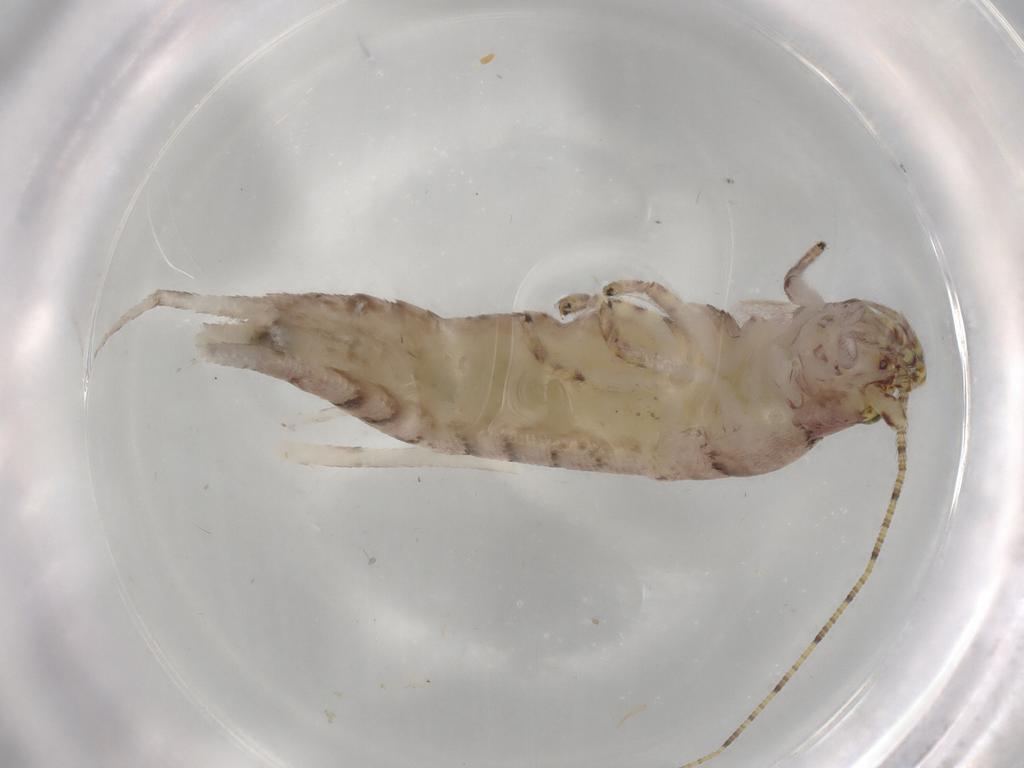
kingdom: Animalia
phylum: Arthropoda
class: Insecta
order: Archaeognatha
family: Machilidae
